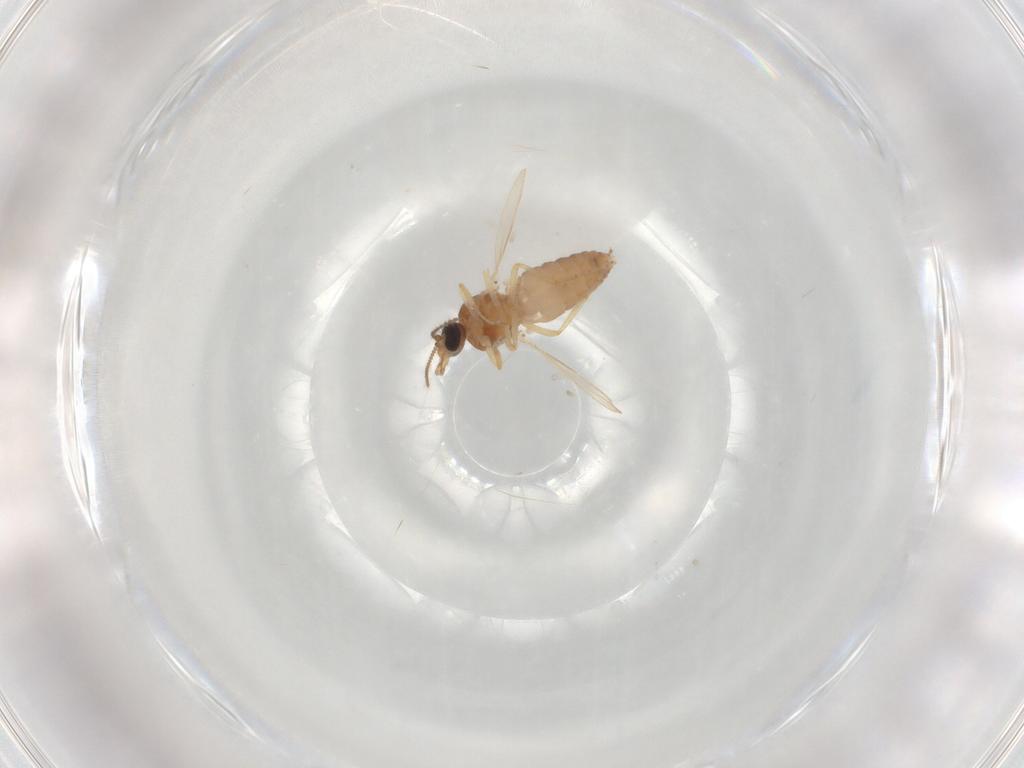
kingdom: Animalia
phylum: Arthropoda
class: Insecta
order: Diptera
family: Ceratopogonidae
